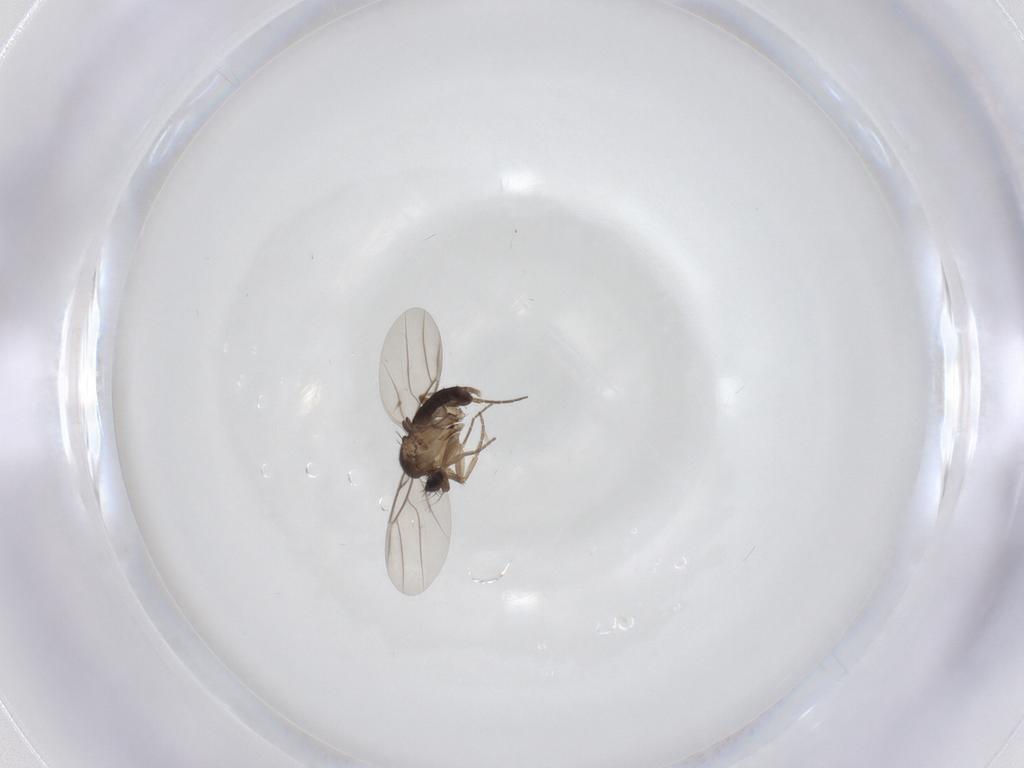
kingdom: Animalia
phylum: Arthropoda
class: Insecta
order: Diptera
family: Phoridae
